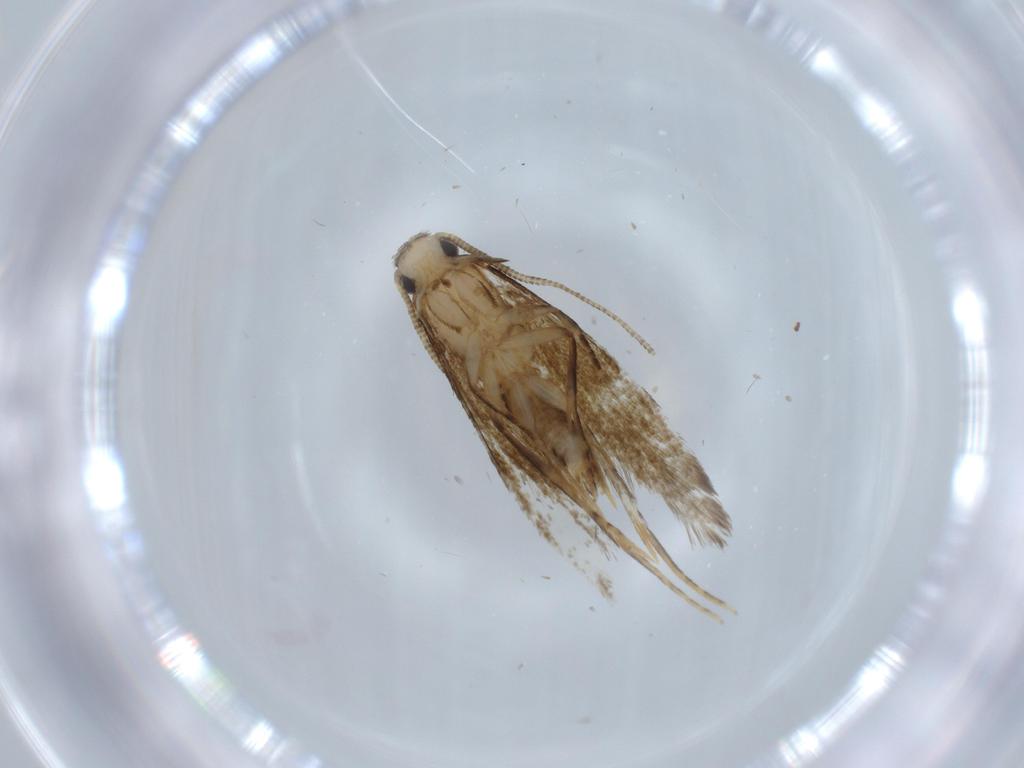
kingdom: Animalia
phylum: Arthropoda
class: Insecta
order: Lepidoptera
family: Tineidae
